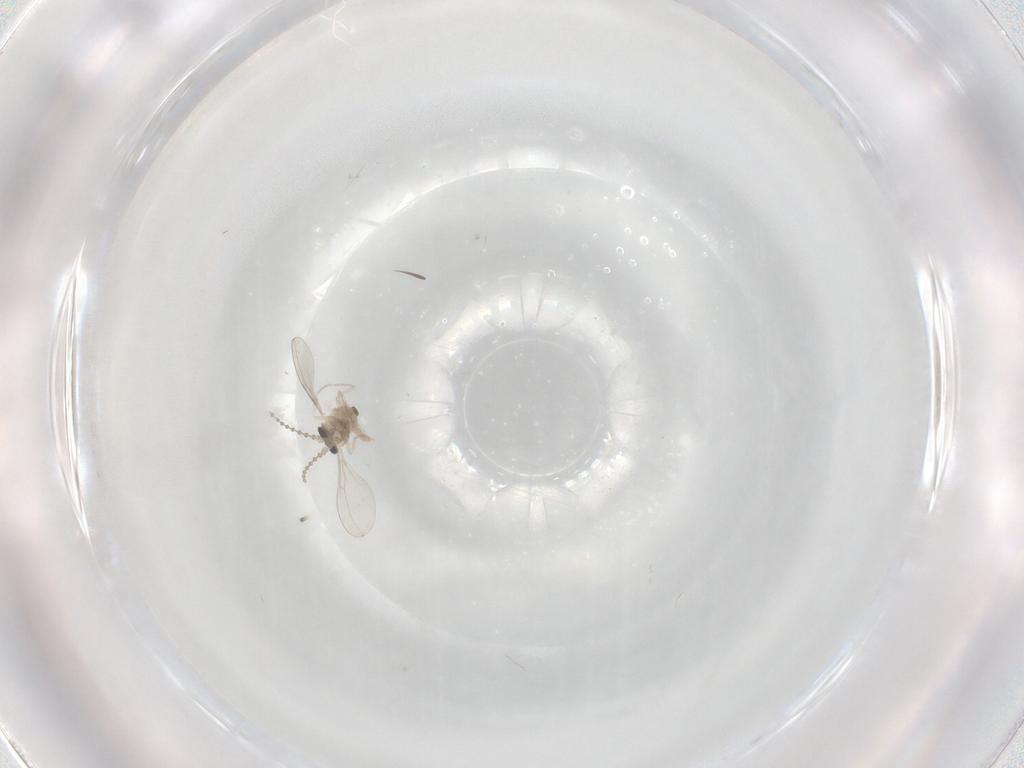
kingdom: Animalia
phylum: Arthropoda
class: Insecta
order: Diptera
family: Cecidomyiidae
